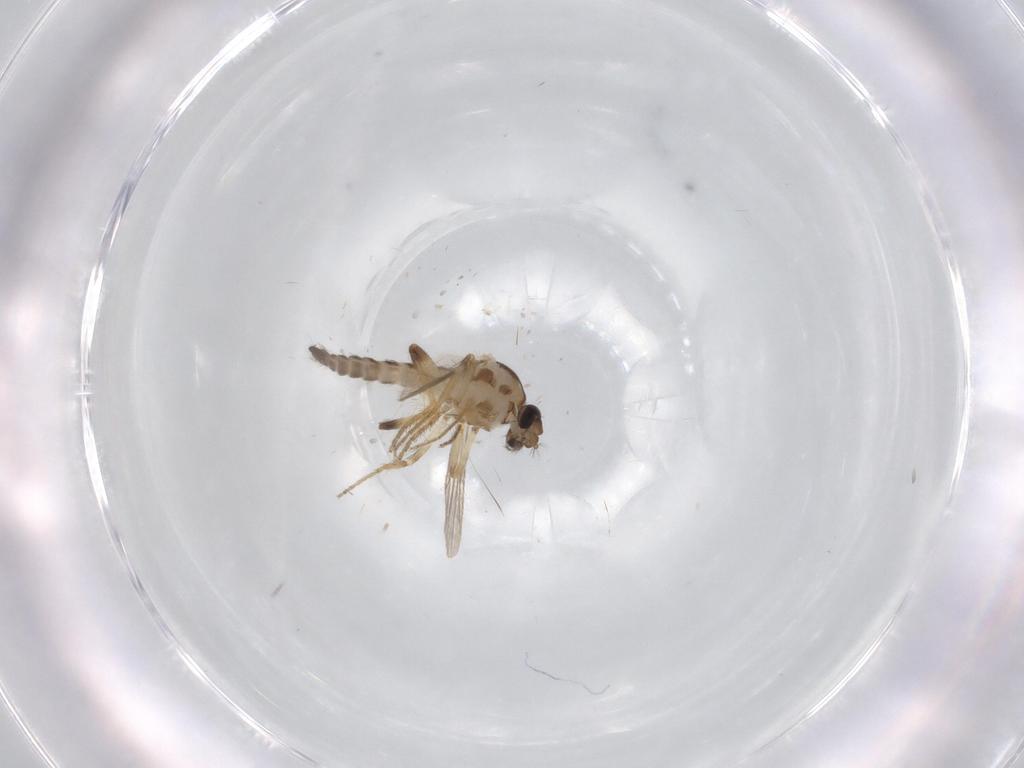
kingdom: Animalia
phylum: Arthropoda
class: Insecta
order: Diptera
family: Ceratopogonidae
